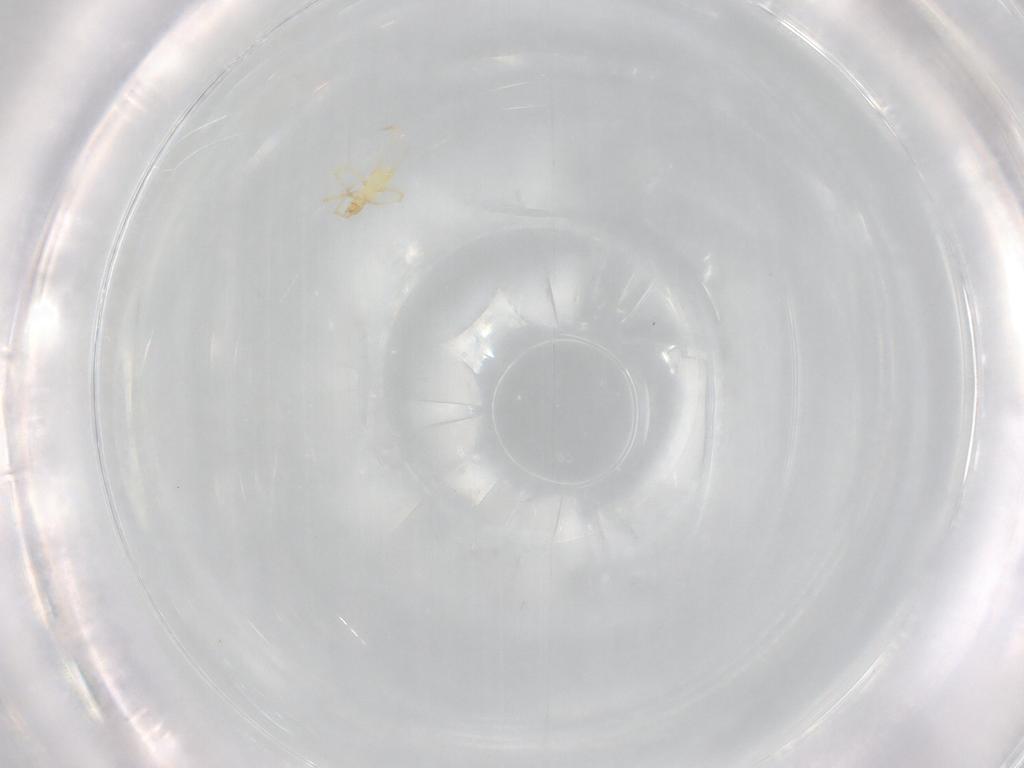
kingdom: Animalia
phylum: Arthropoda
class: Arachnida
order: Trombidiformes
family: Erythraeidae
